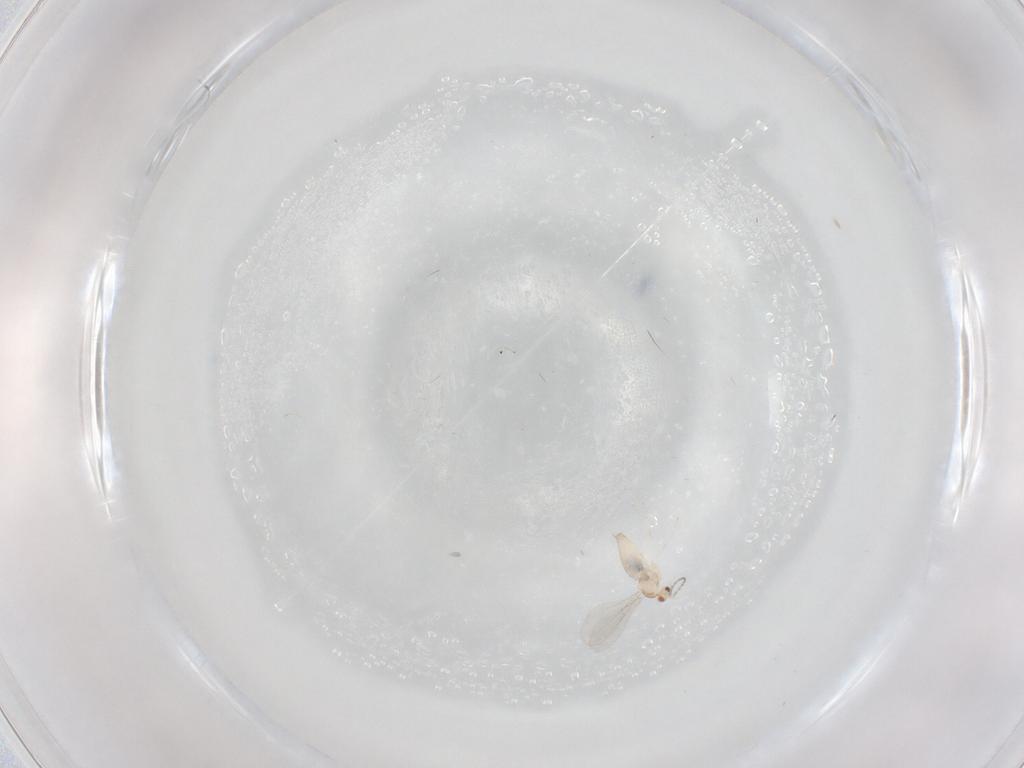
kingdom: Animalia
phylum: Arthropoda
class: Insecta
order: Diptera
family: Cecidomyiidae
